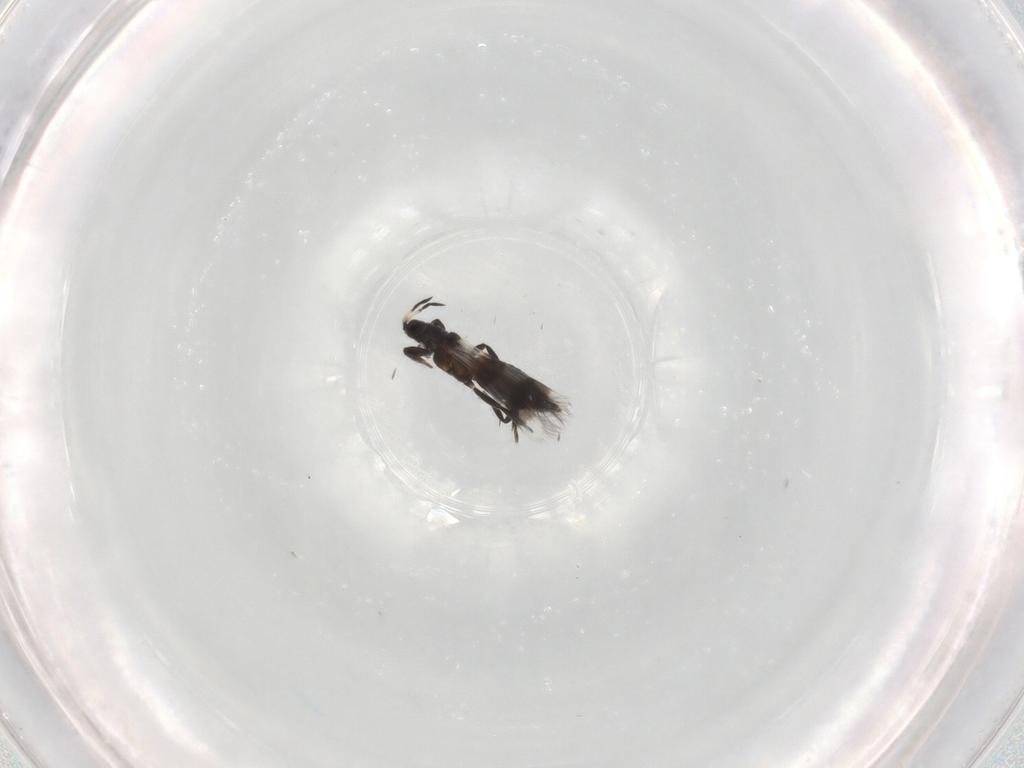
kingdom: Animalia
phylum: Arthropoda
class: Insecta
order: Thysanoptera
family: Aeolothripidae
